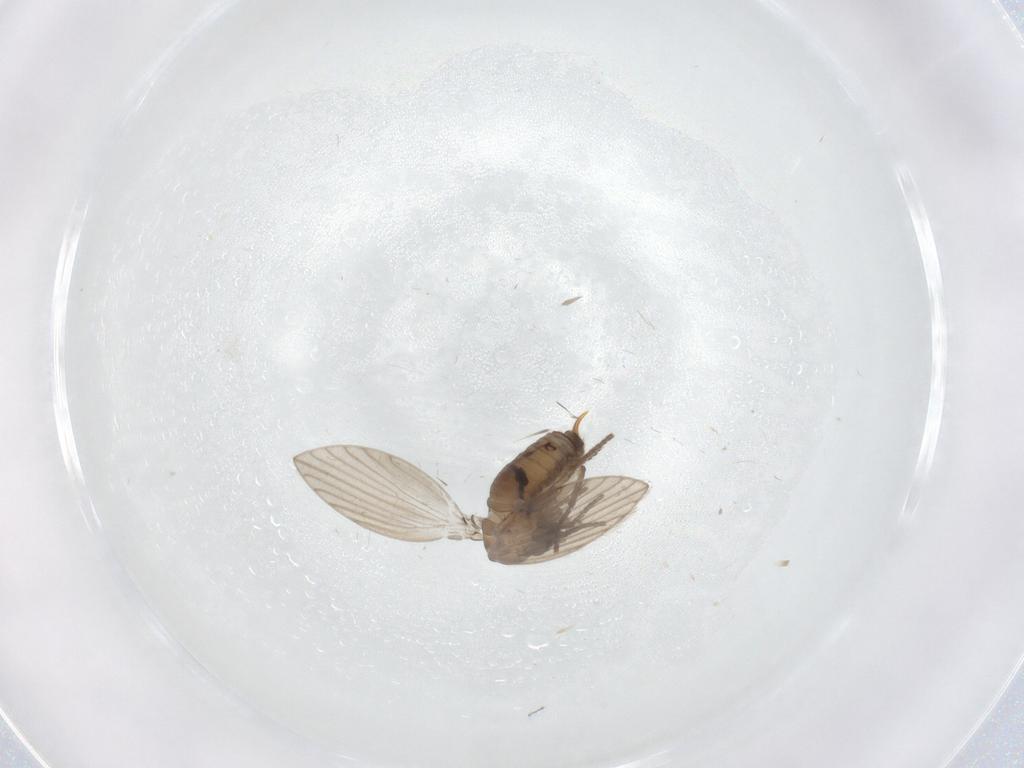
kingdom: Animalia
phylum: Arthropoda
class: Insecta
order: Diptera
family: Psychodidae
